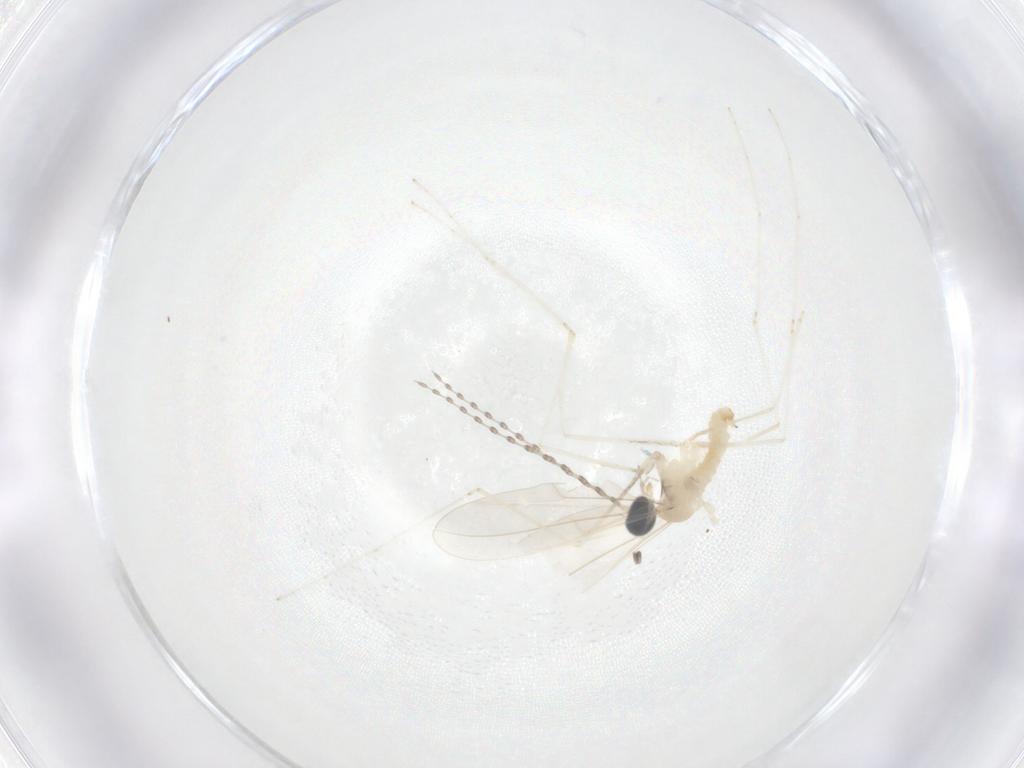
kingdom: Animalia
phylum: Arthropoda
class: Insecta
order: Diptera
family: Cecidomyiidae
